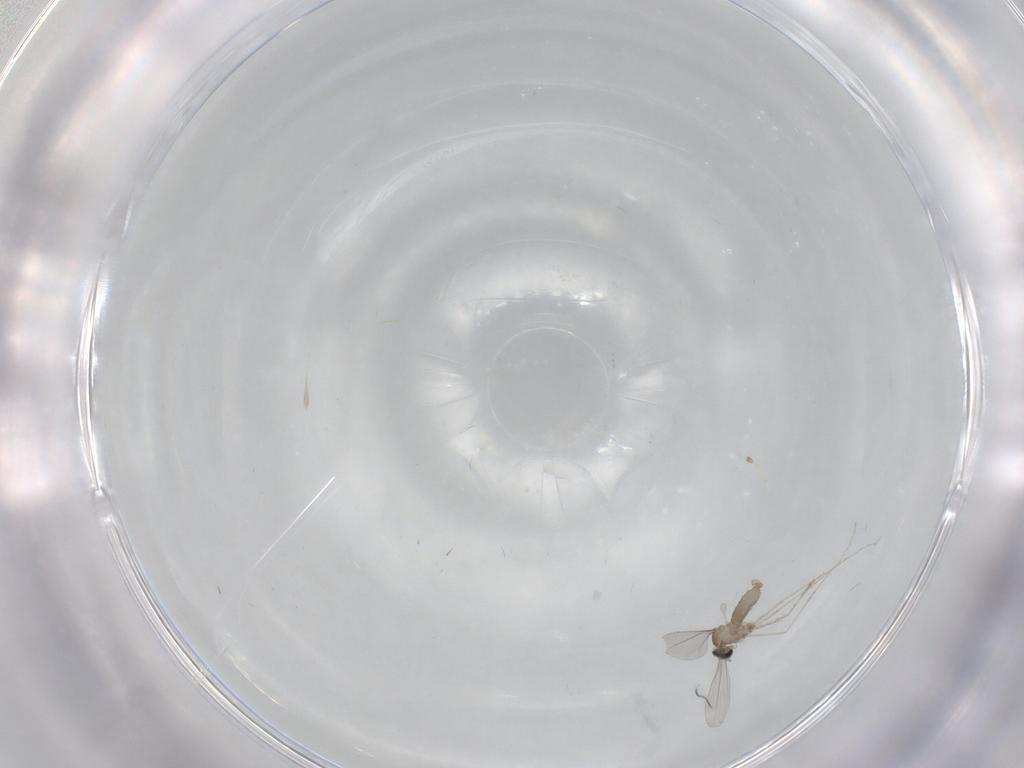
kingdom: Animalia
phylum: Arthropoda
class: Insecta
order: Diptera
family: Cecidomyiidae
